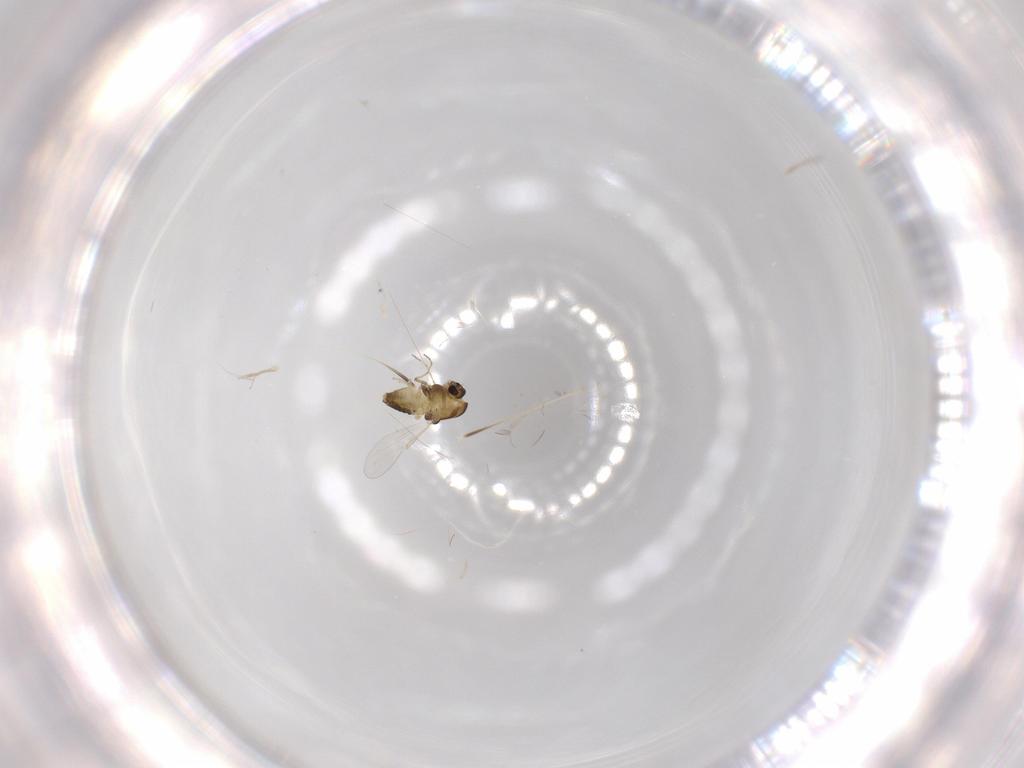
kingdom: Animalia
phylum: Arthropoda
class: Insecta
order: Diptera
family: Chironomidae
